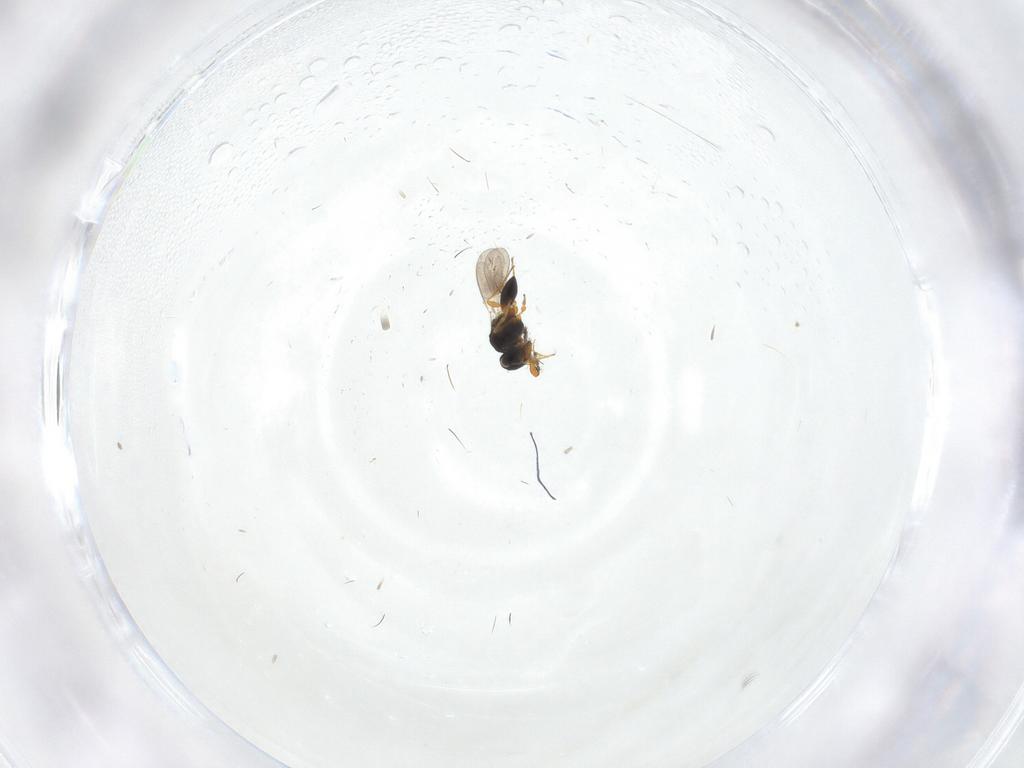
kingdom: Animalia
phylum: Arthropoda
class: Insecta
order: Hymenoptera
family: Platygastridae
